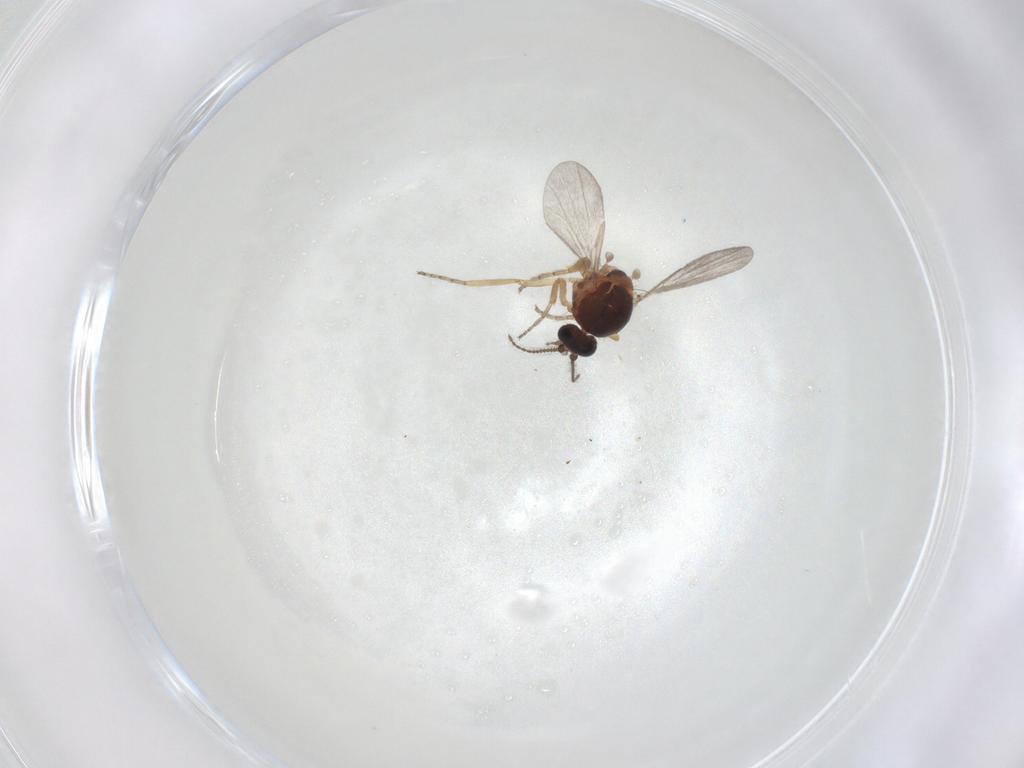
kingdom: Animalia
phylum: Arthropoda
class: Insecta
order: Diptera
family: Ceratopogonidae
